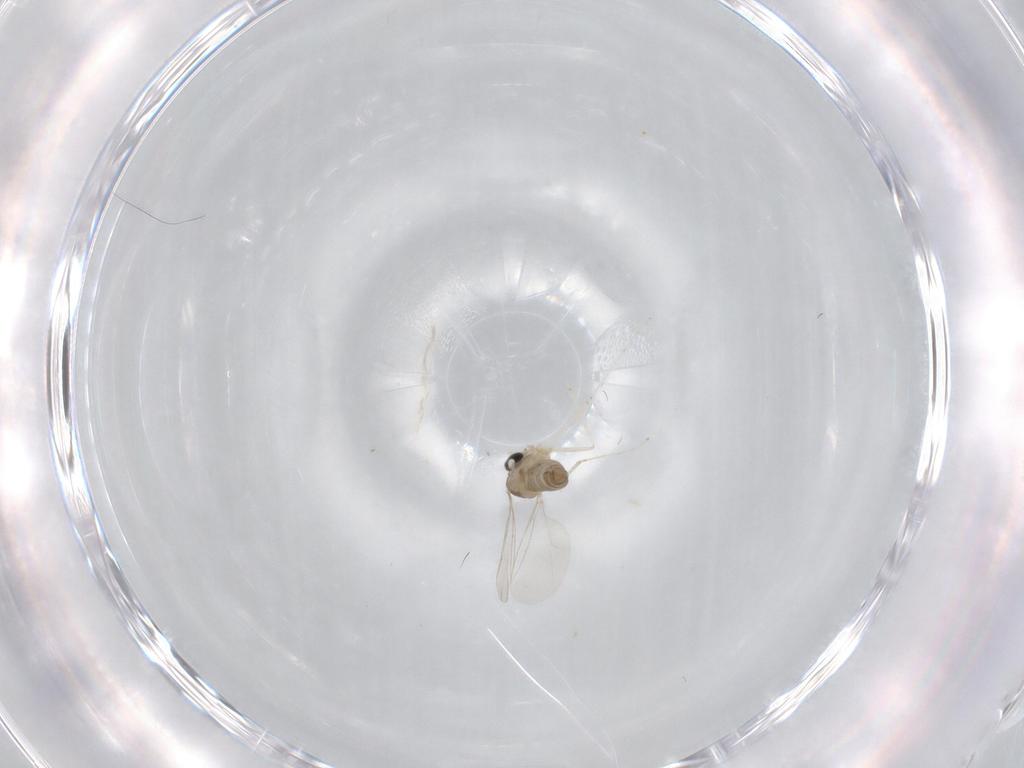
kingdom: Animalia
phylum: Arthropoda
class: Insecta
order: Diptera
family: Cecidomyiidae
